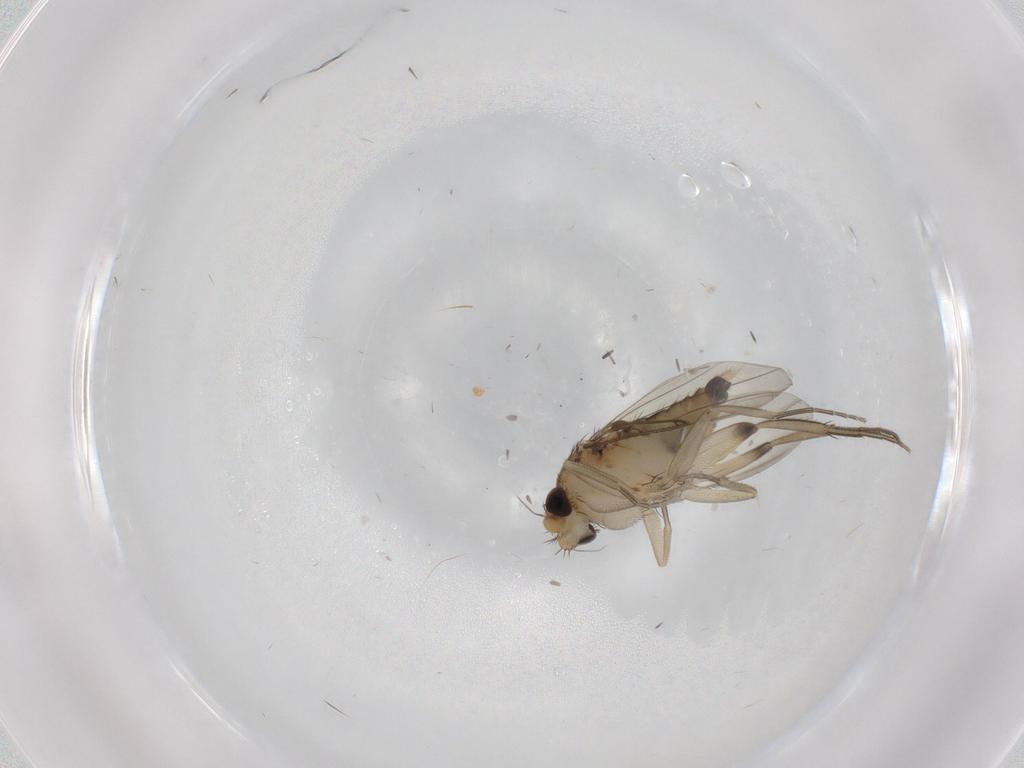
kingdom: Animalia
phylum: Arthropoda
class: Insecta
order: Diptera
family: Phoridae
